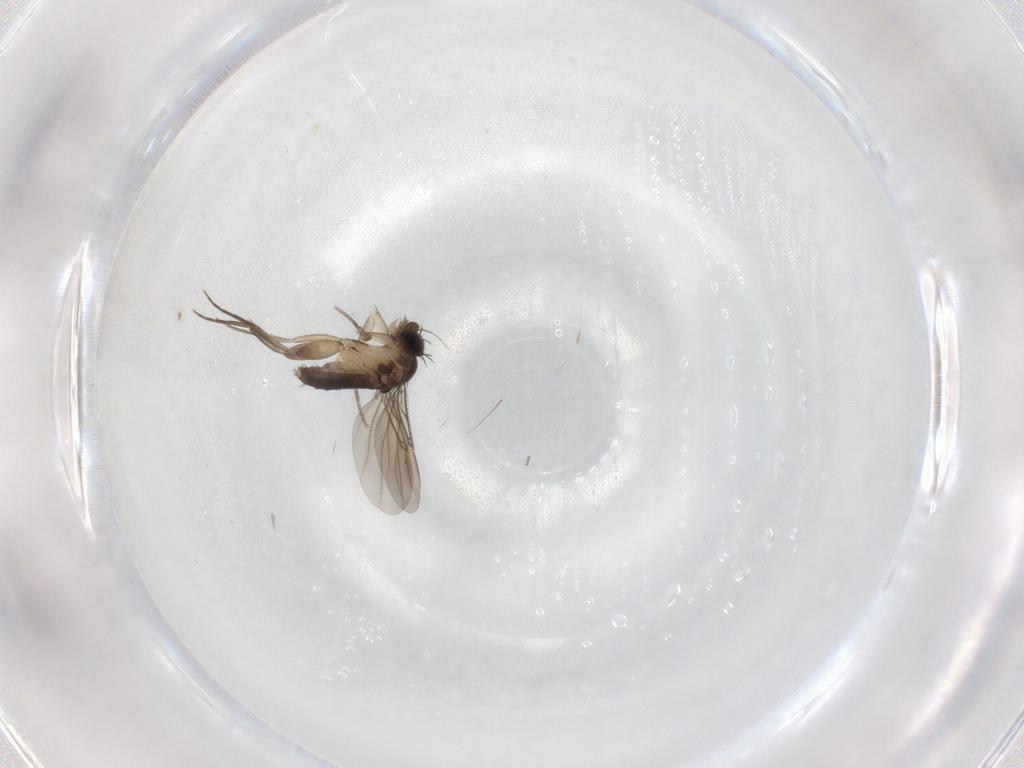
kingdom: Animalia
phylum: Arthropoda
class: Insecta
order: Diptera
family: Phoridae
